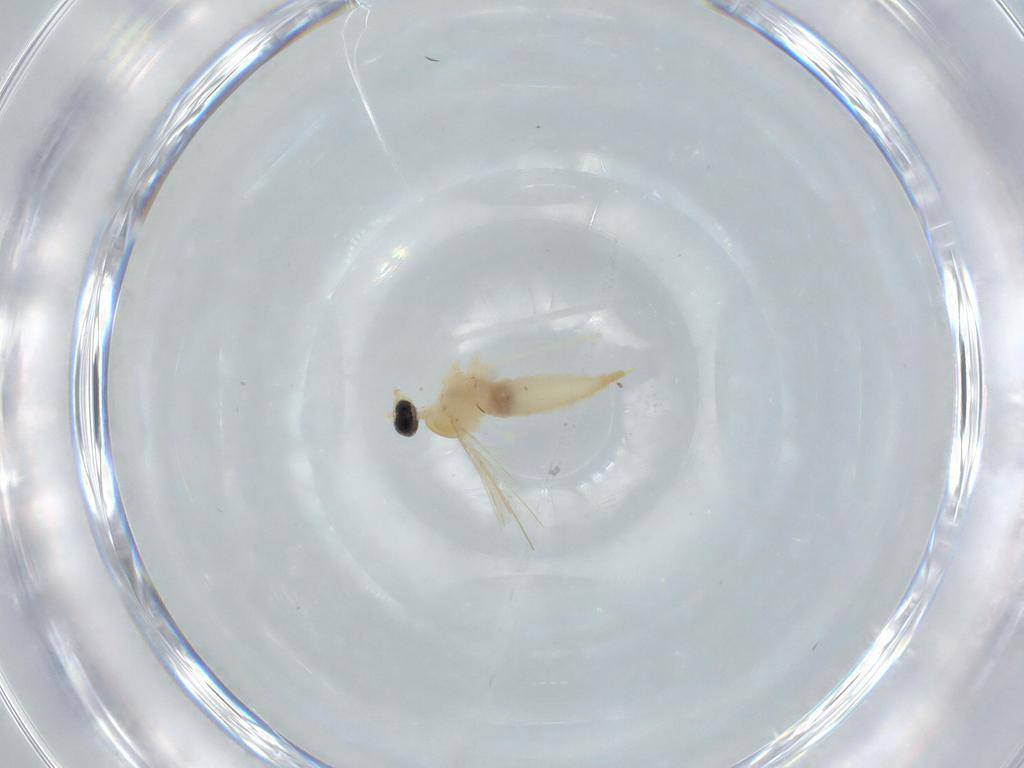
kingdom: Animalia
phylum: Arthropoda
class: Insecta
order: Diptera
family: Cecidomyiidae
